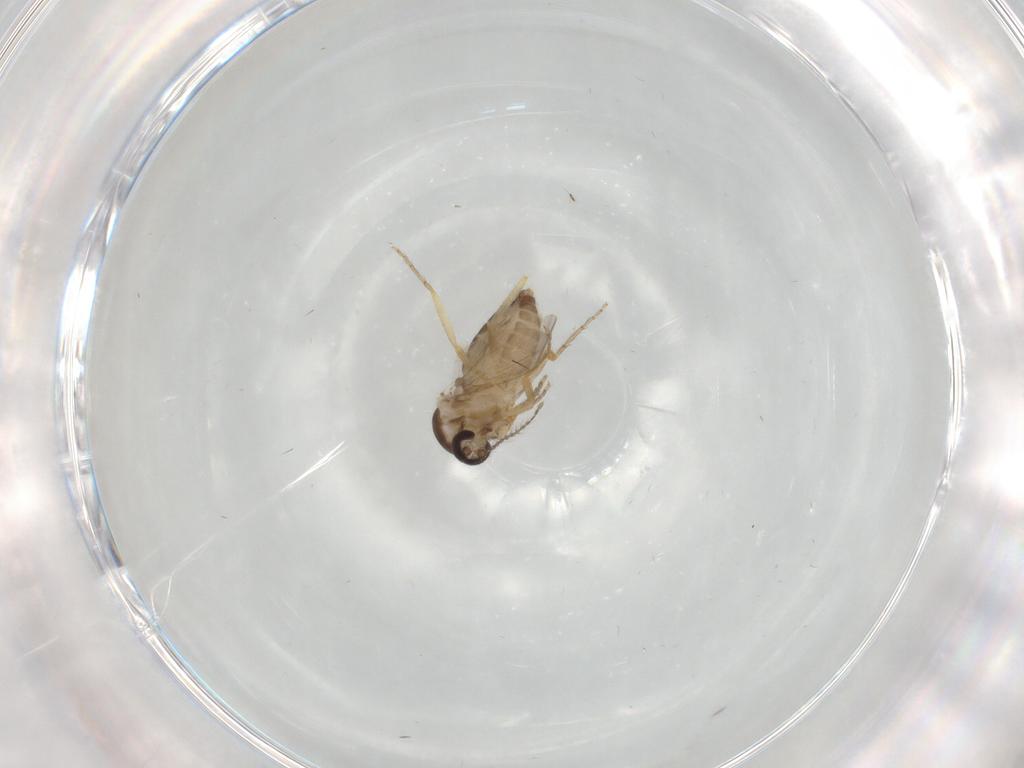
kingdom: Animalia
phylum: Arthropoda
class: Insecta
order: Diptera
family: Ceratopogonidae
